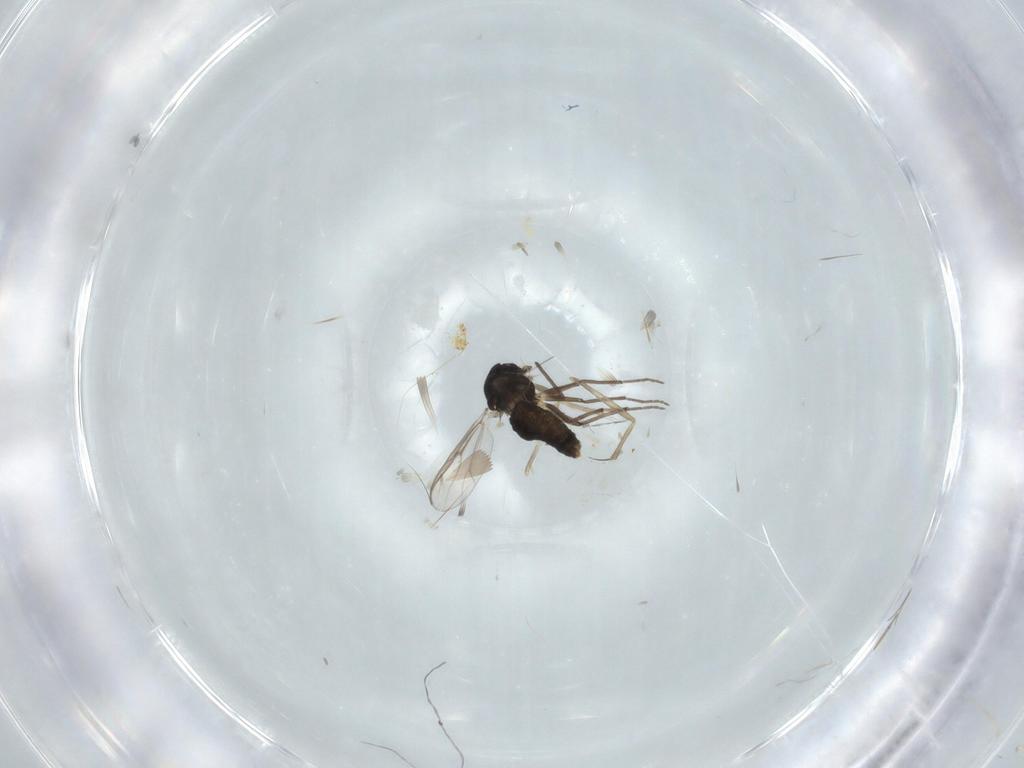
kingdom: Animalia
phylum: Arthropoda
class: Insecta
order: Diptera
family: Chironomidae
